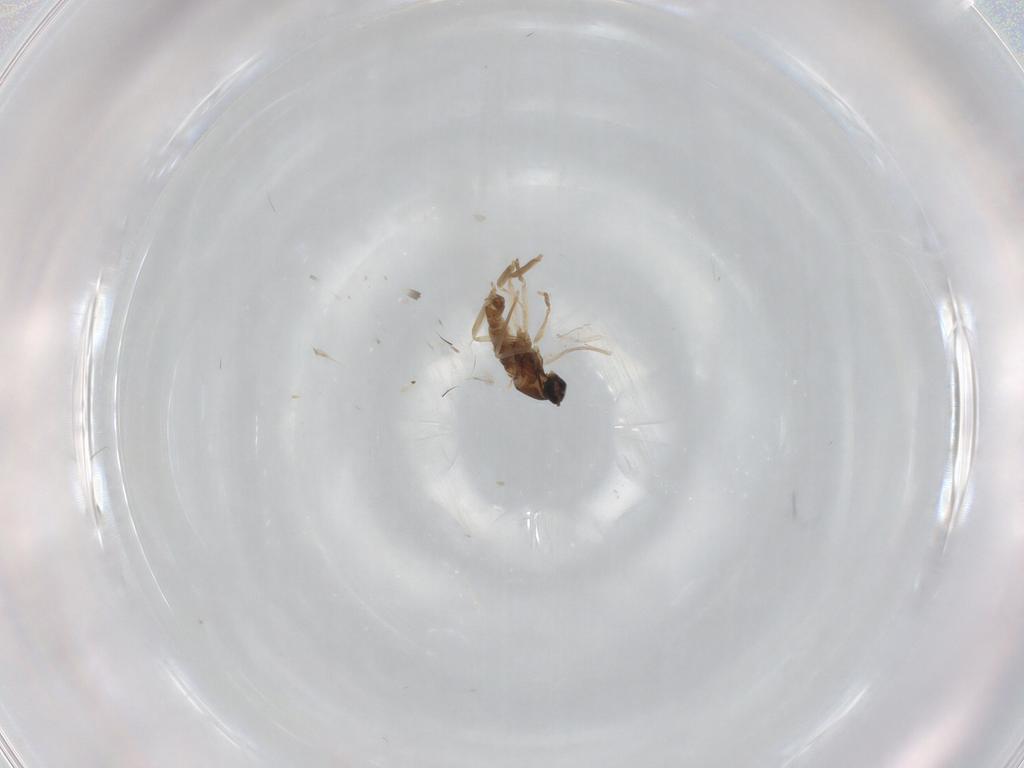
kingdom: Animalia
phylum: Arthropoda
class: Insecta
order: Diptera
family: Cecidomyiidae
